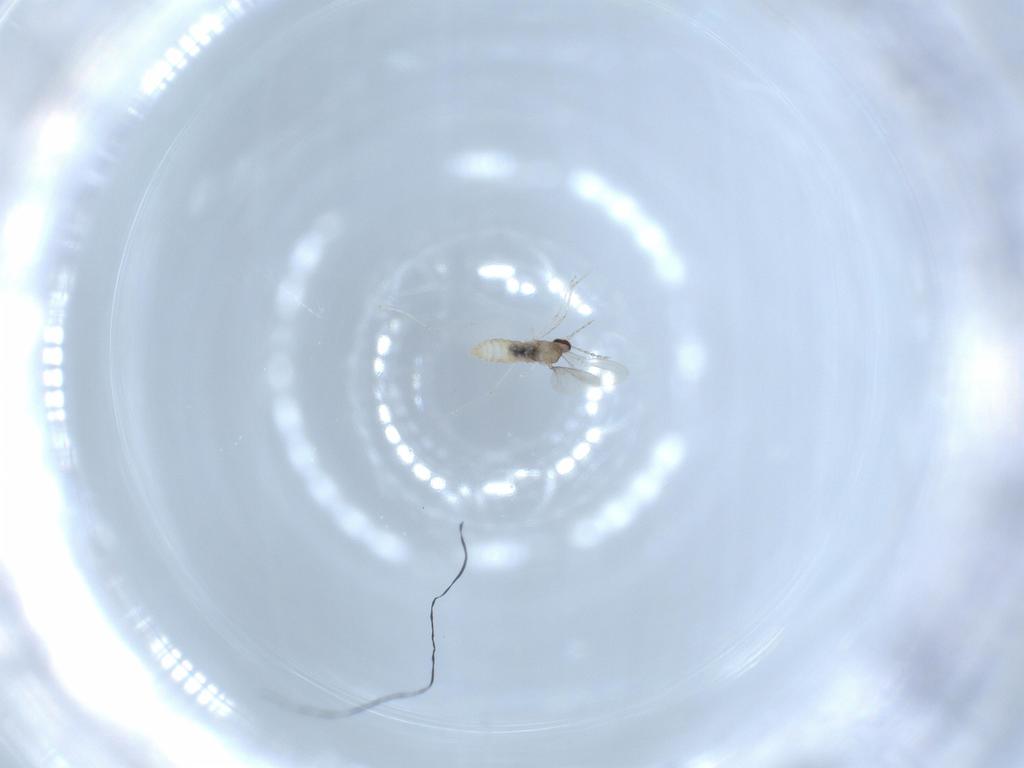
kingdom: Animalia
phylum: Arthropoda
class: Insecta
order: Diptera
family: Cecidomyiidae
